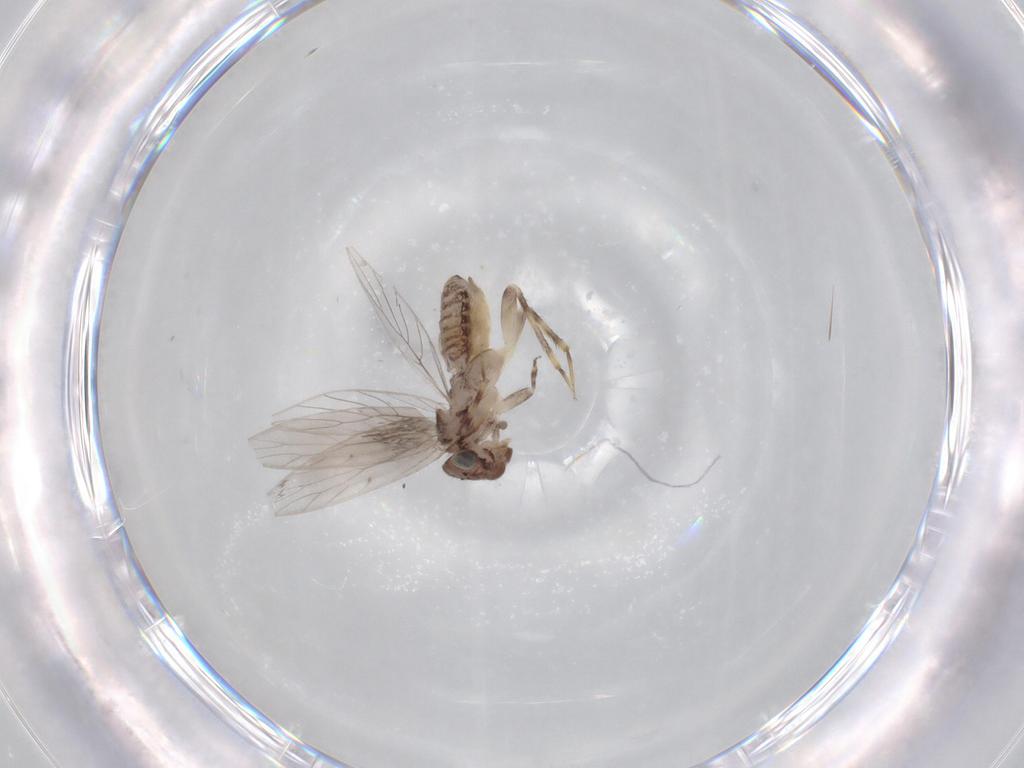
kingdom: Animalia
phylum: Arthropoda
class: Insecta
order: Psocodea
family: Lepidopsocidae
